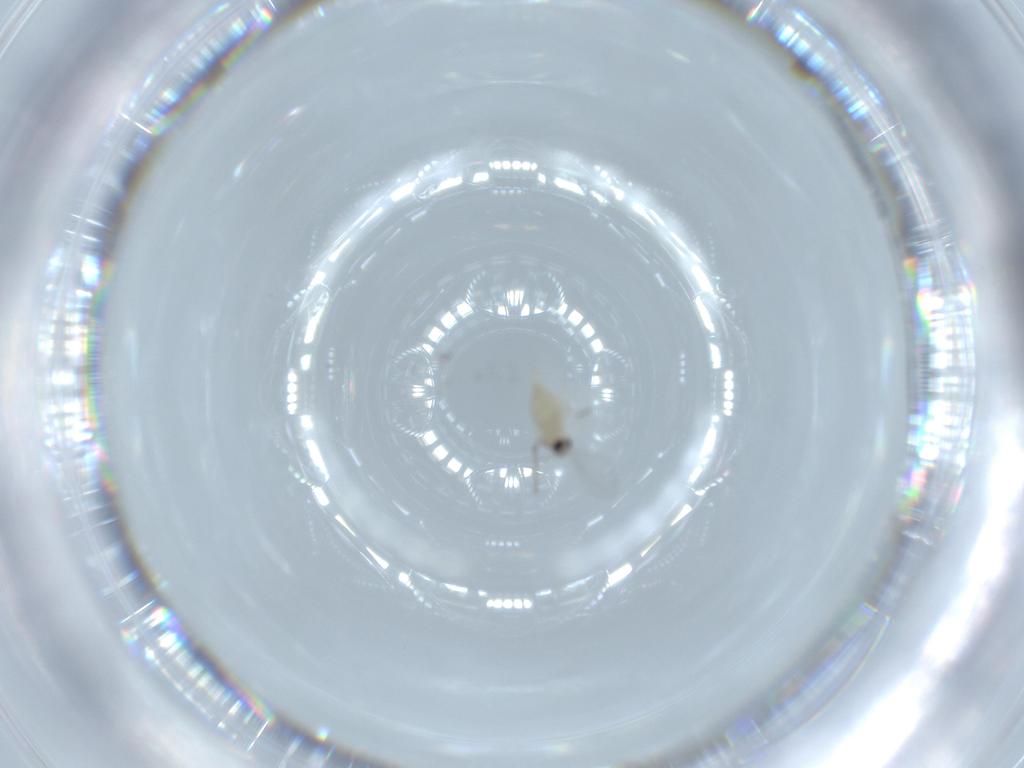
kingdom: Animalia
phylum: Arthropoda
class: Insecta
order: Diptera
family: Cecidomyiidae
